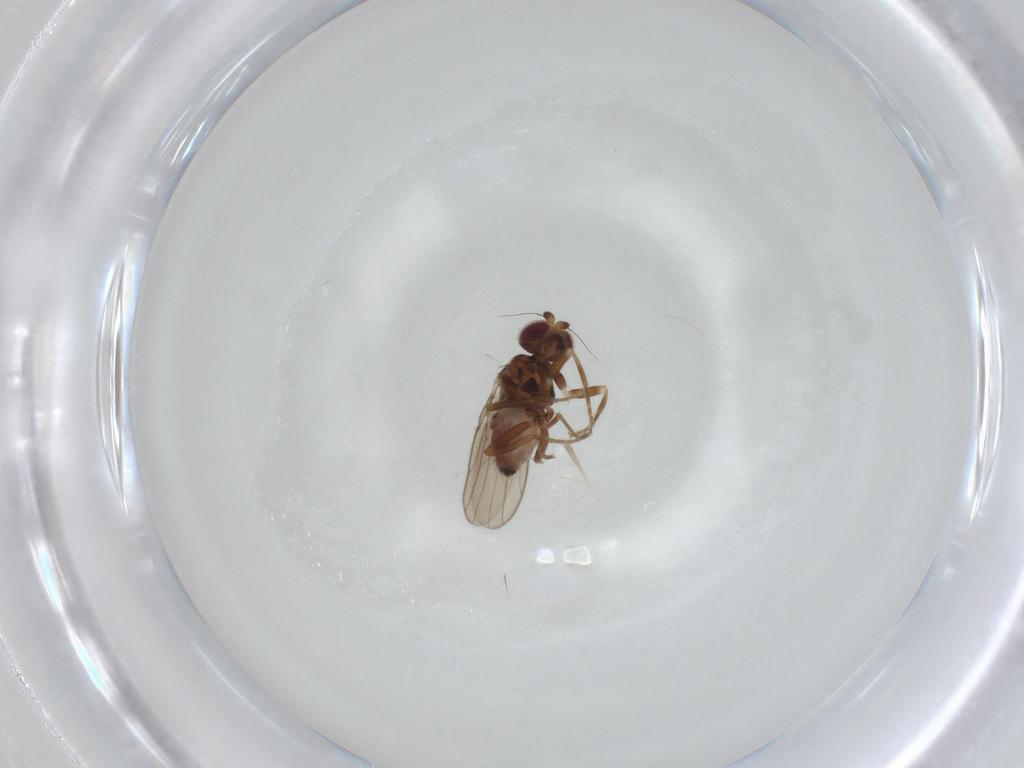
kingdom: Animalia
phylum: Arthropoda
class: Insecta
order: Diptera
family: Chloropidae
